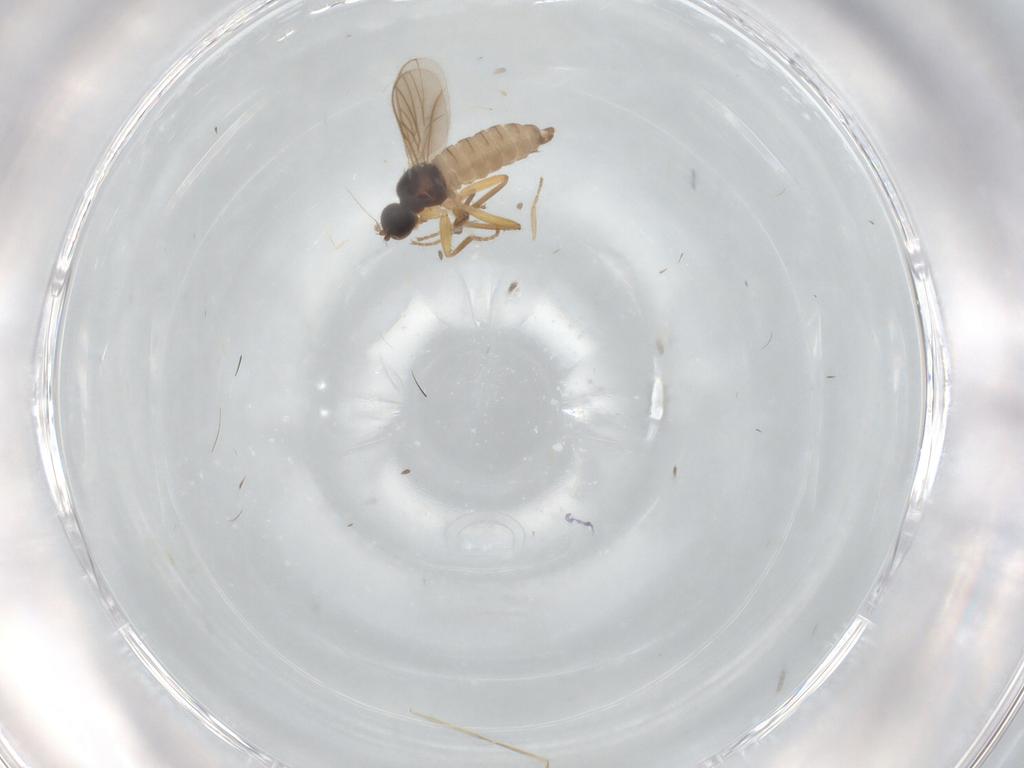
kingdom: Animalia
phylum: Arthropoda
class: Insecta
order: Diptera
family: Hybotidae
